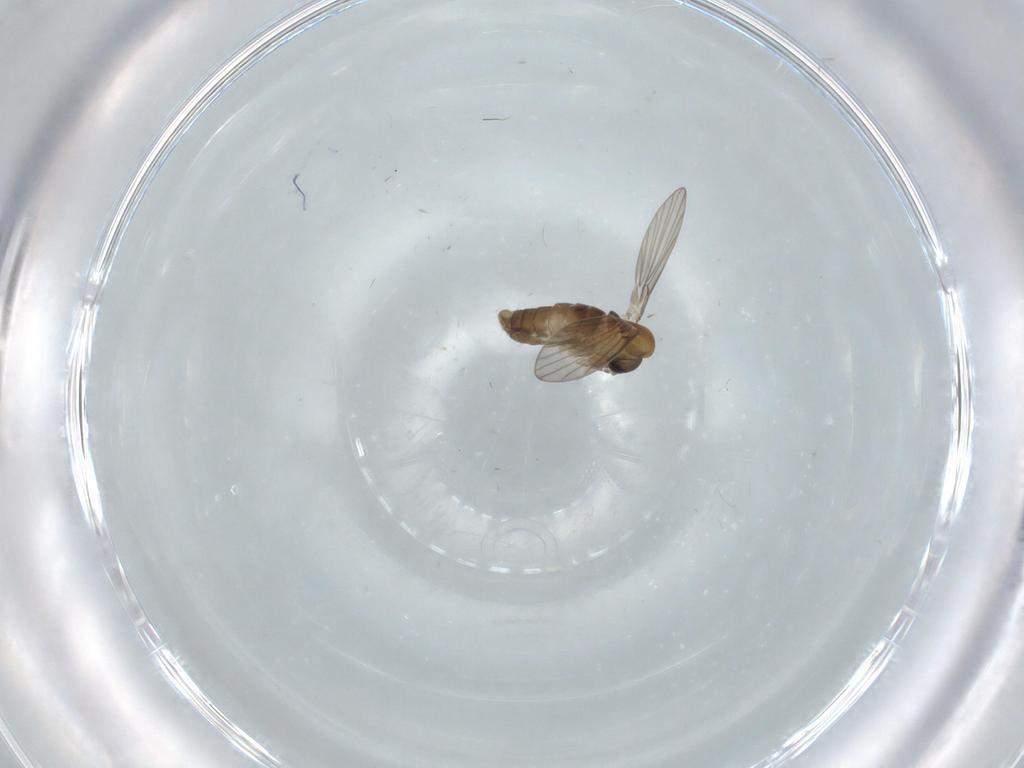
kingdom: Animalia
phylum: Arthropoda
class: Insecta
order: Diptera
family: Psychodidae
